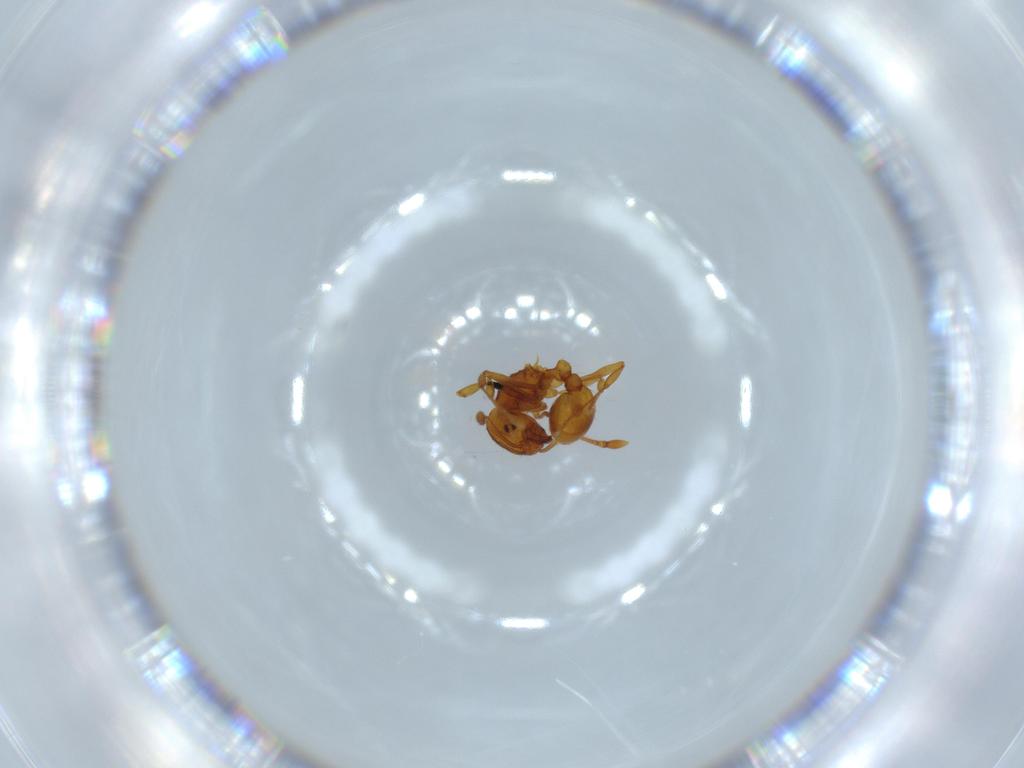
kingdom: Animalia
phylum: Arthropoda
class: Insecta
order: Hymenoptera
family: Formicidae
